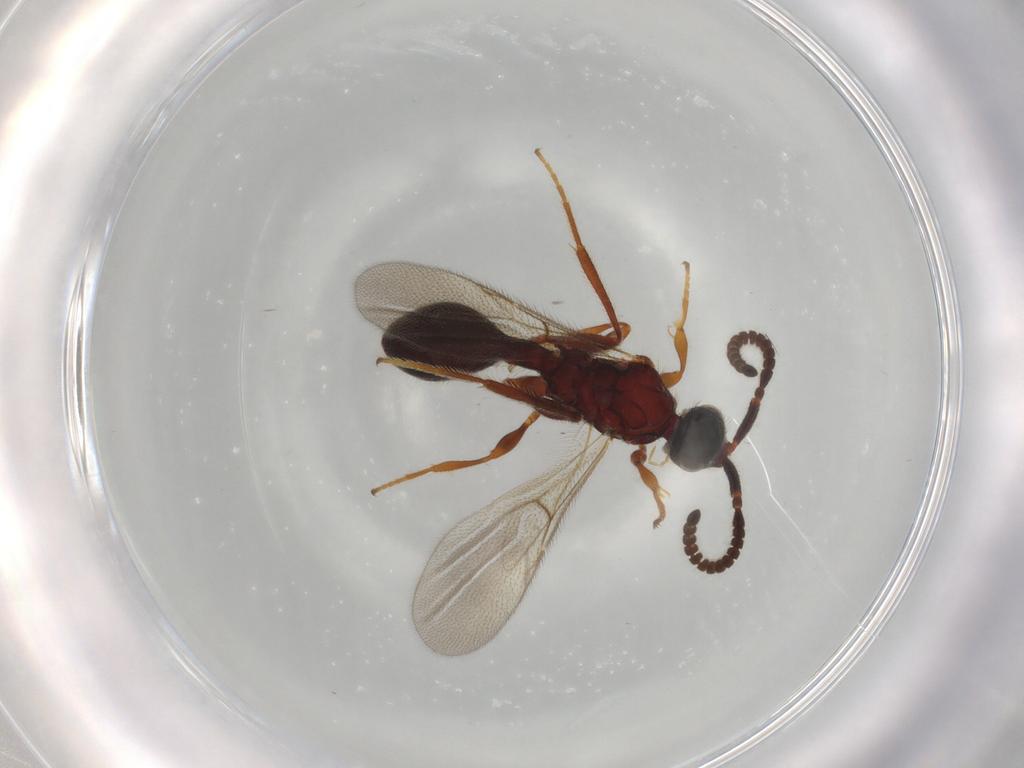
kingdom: Animalia
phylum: Arthropoda
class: Insecta
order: Hymenoptera
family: Diapriidae
